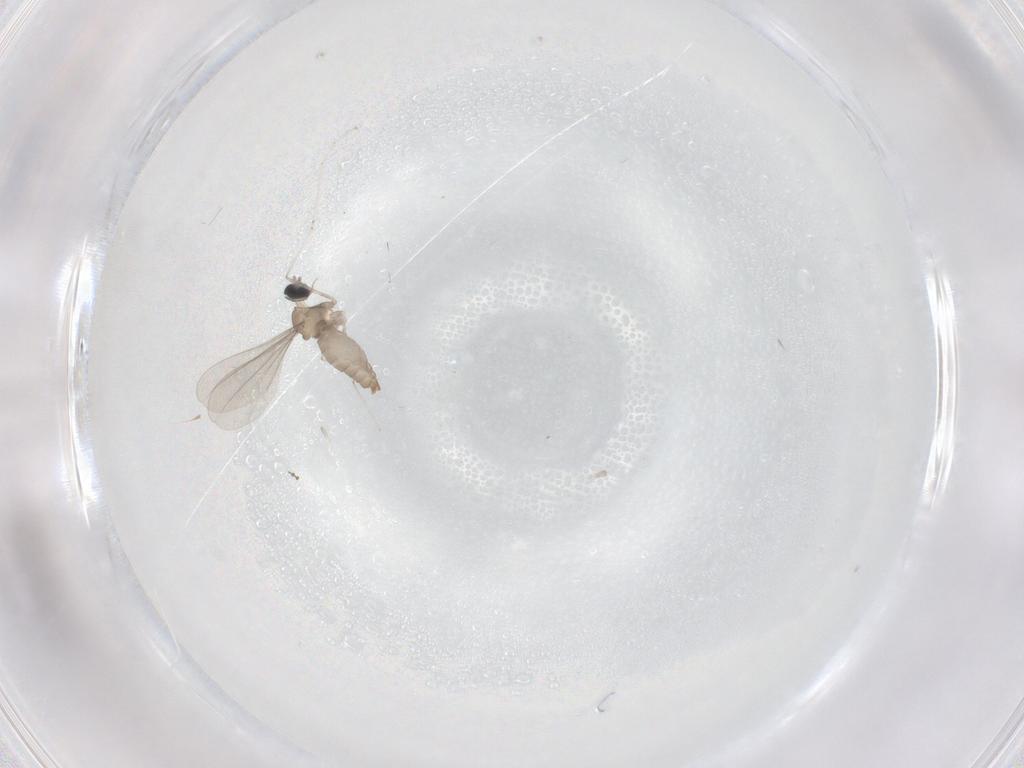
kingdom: Animalia
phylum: Arthropoda
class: Insecta
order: Diptera
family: Cecidomyiidae
